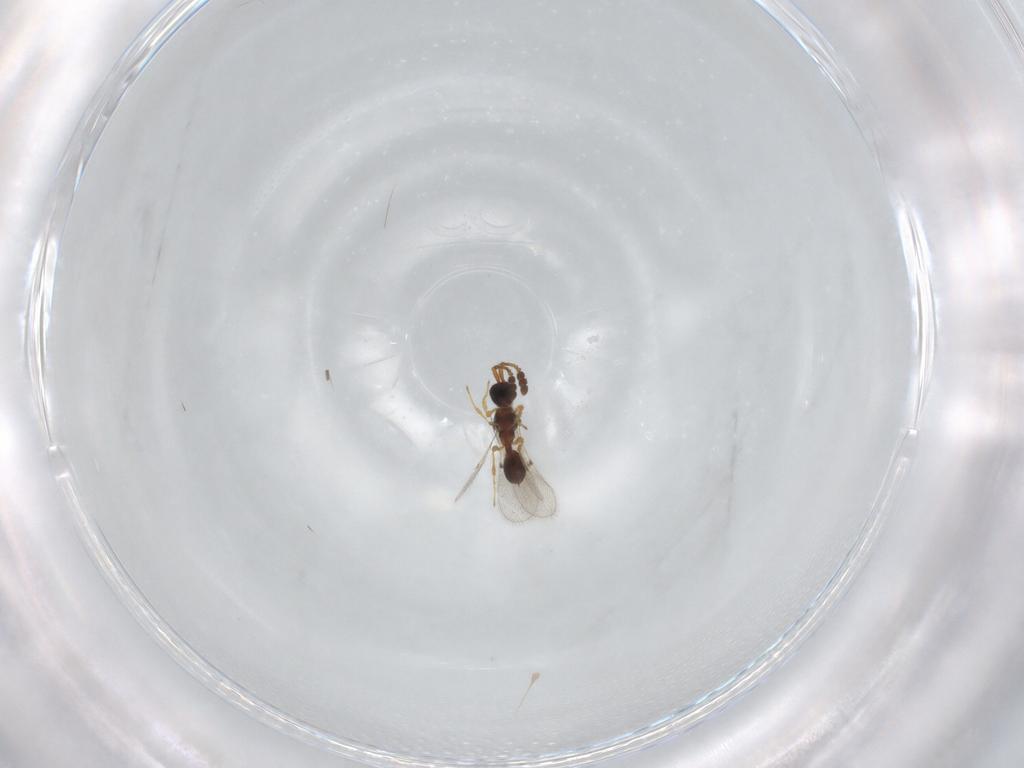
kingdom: Animalia
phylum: Arthropoda
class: Insecta
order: Hymenoptera
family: Diapriidae
